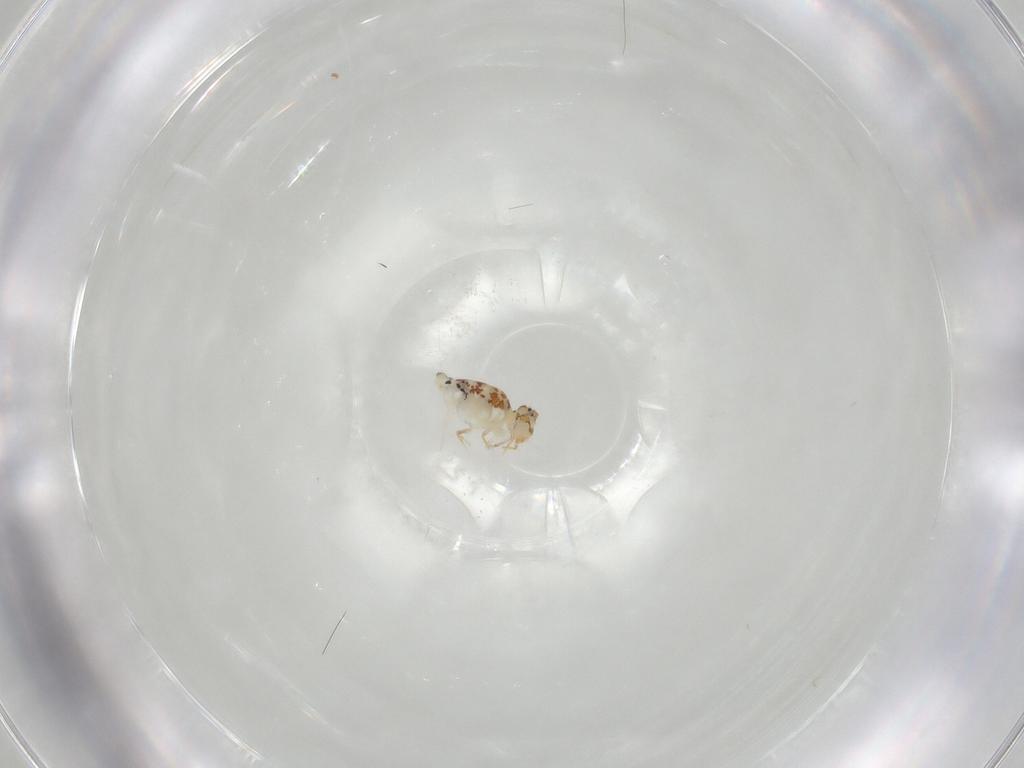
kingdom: Animalia
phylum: Arthropoda
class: Collembola
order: Symphypleona
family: Bourletiellidae
